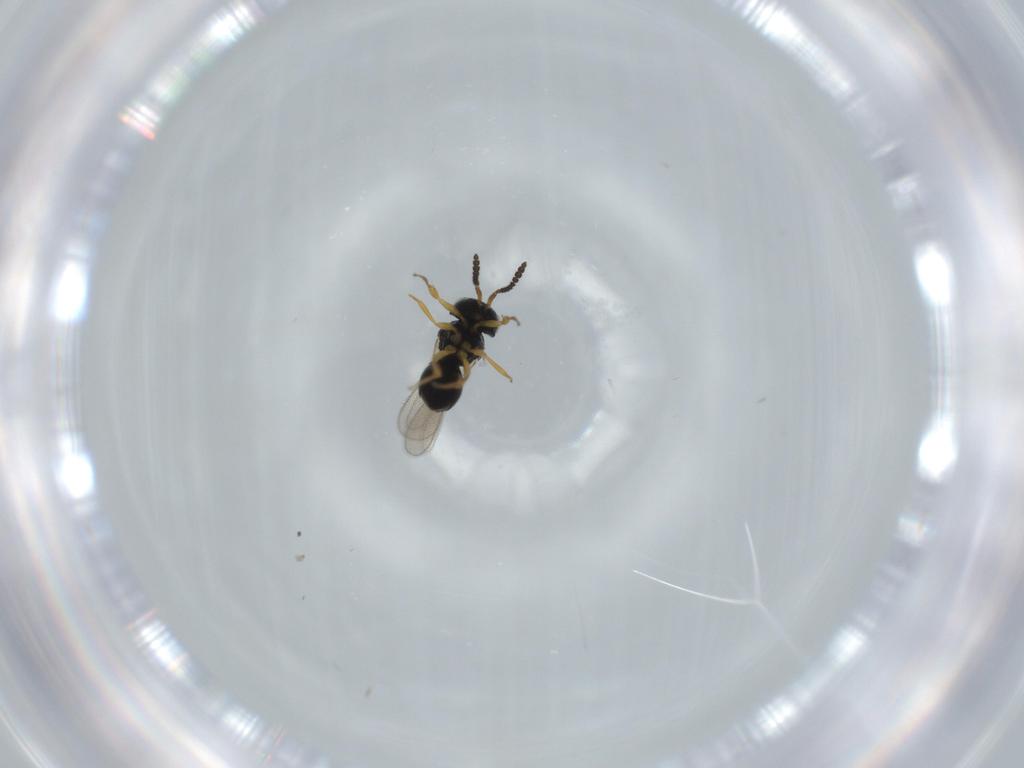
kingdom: Animalia
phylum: Arthropoda
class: Insecta
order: Hymenoptera
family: Scelionidae
